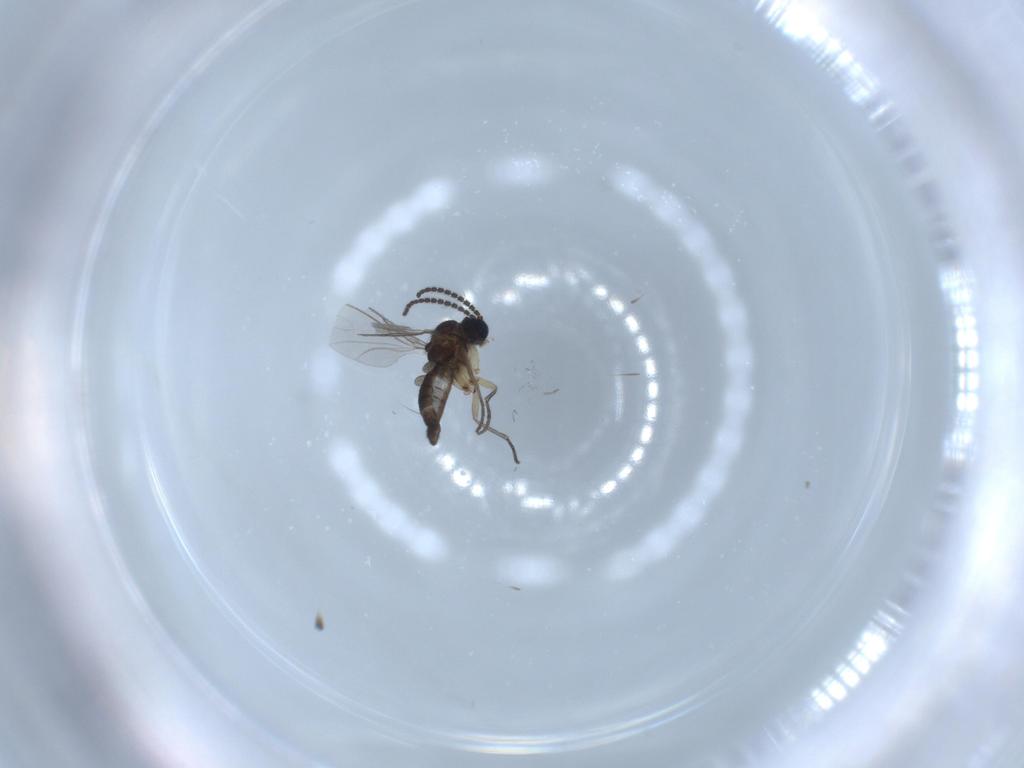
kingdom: Animalia
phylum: Arthropoda
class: Insecta
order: Diptera
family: Sciaridae
